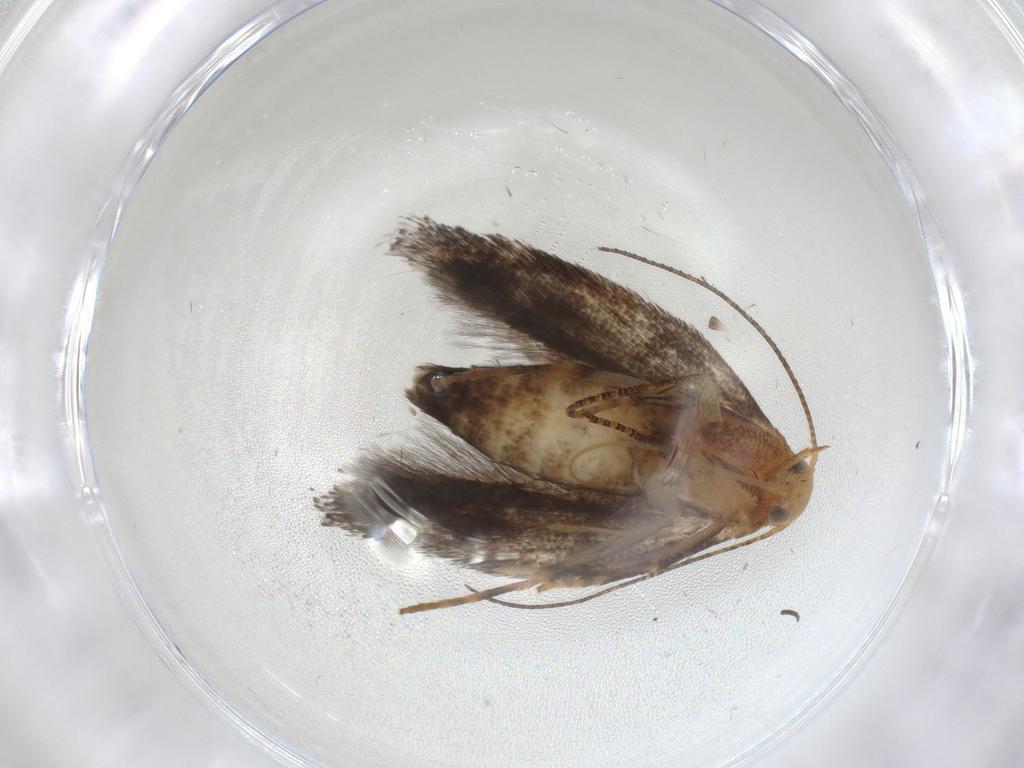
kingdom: Animalia
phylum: Arthropoda
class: Insecta
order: Lepidoptera
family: Gelechiidae
